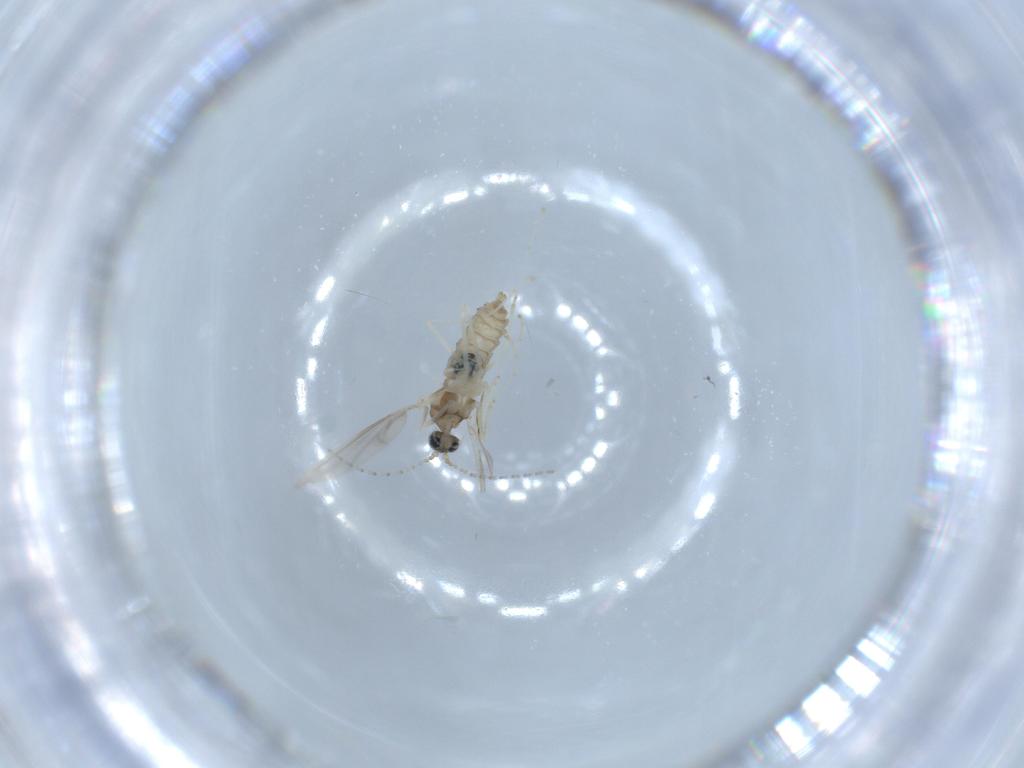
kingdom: Animalia
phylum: Arthropoda
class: Insecta
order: Diptera
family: Cecidomyiidae
